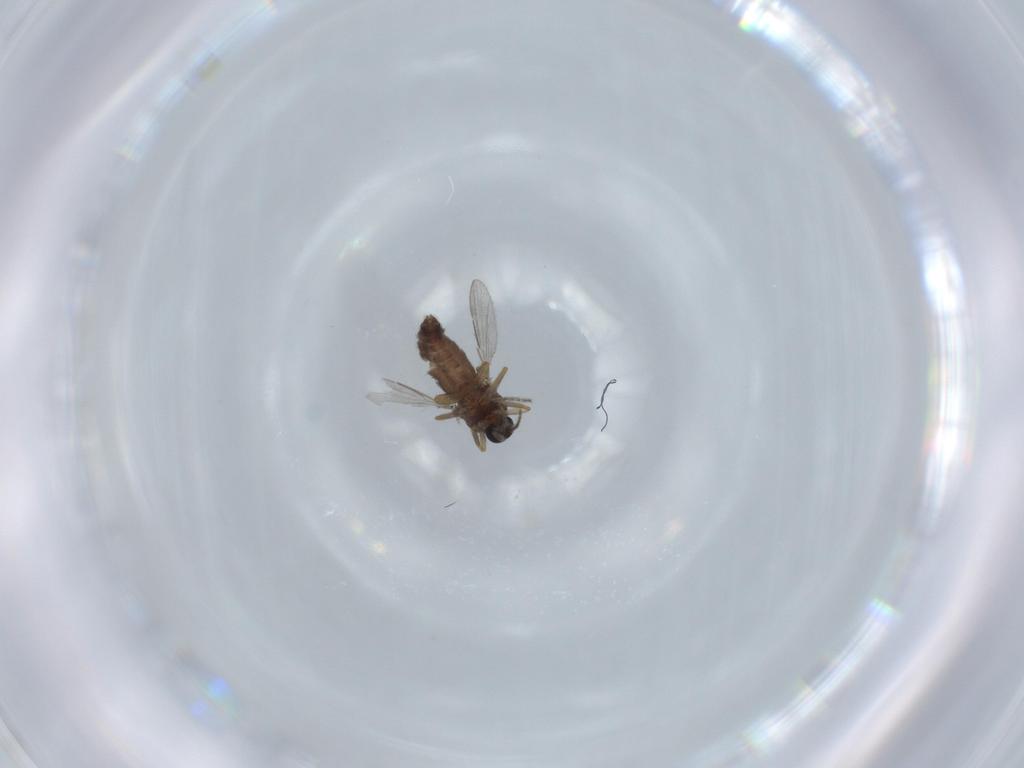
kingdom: Animalia
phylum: Arthropoda
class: Insecta
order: Diptera
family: Ceratopogonidae
